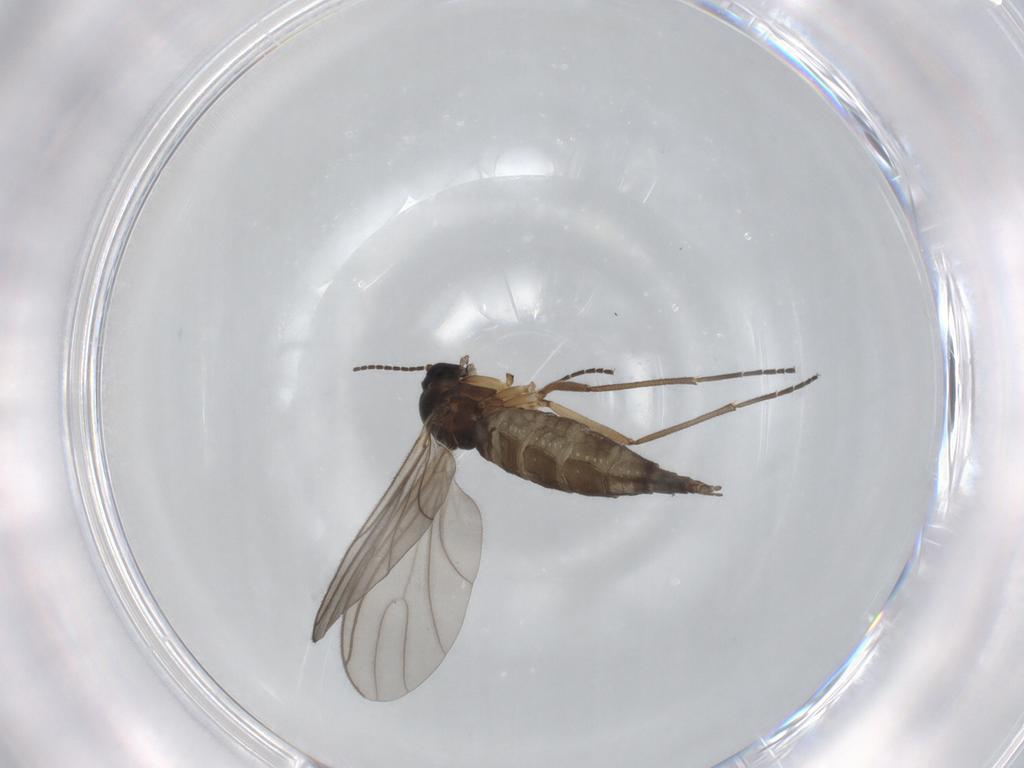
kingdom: Animalia
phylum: Arthropoda
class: Insecta
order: Diptera
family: Sciaridae
